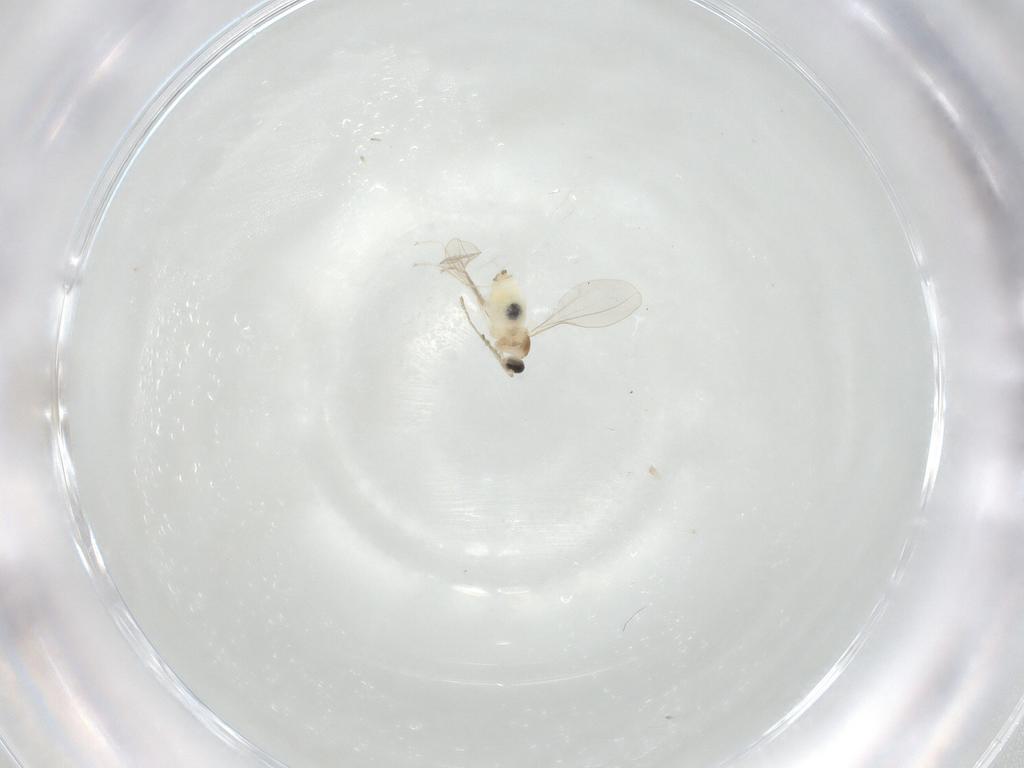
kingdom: Animalia
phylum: Arthropoda
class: Insecta
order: Diptera
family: Cecidomyiidae
